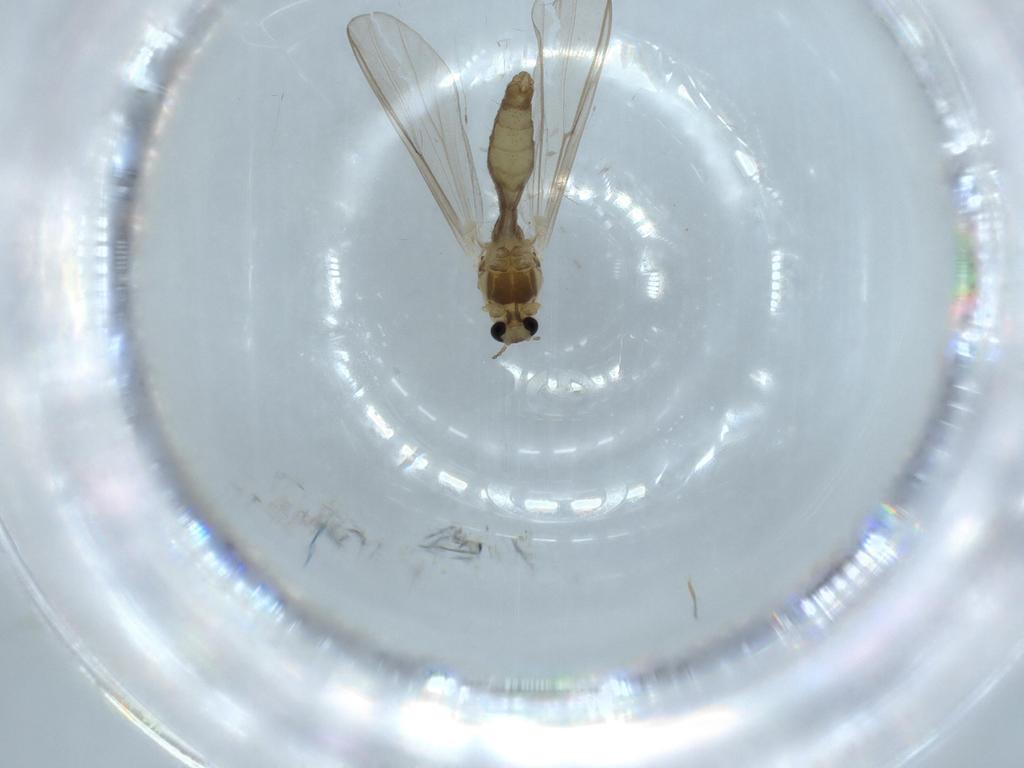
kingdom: Animalia
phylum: Arthropoda
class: Insecta
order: Diptera
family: Chironomidae
